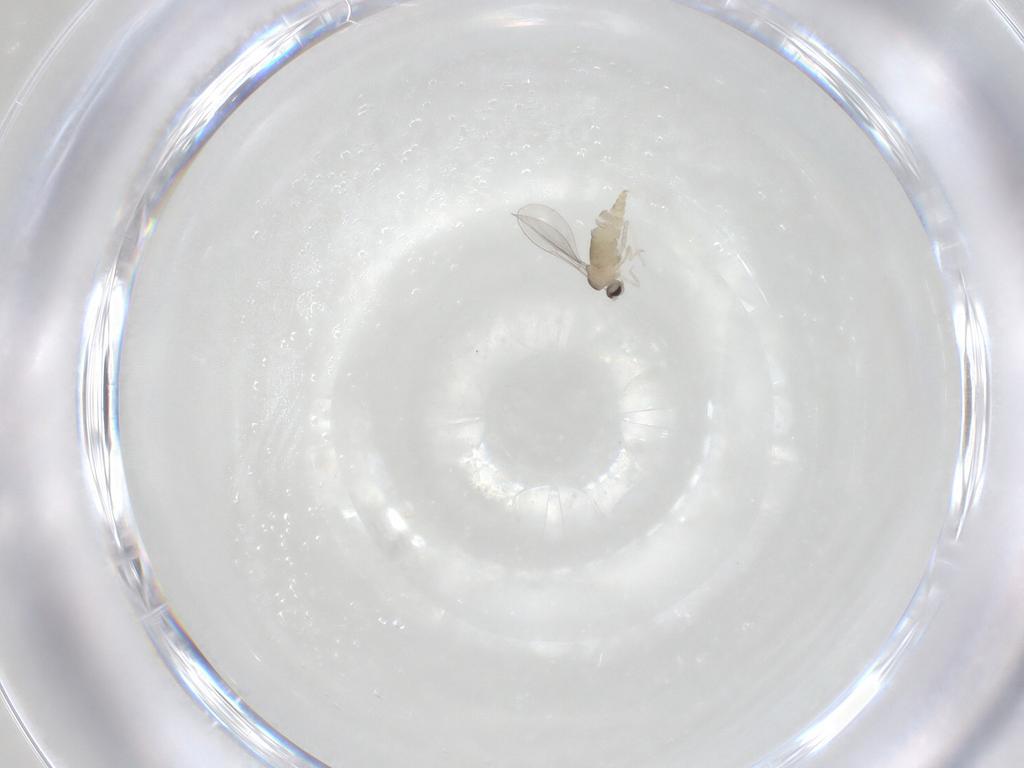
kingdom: Animalia
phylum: Arthropoda
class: Insecta
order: Diptera
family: Cecidomyiidae
